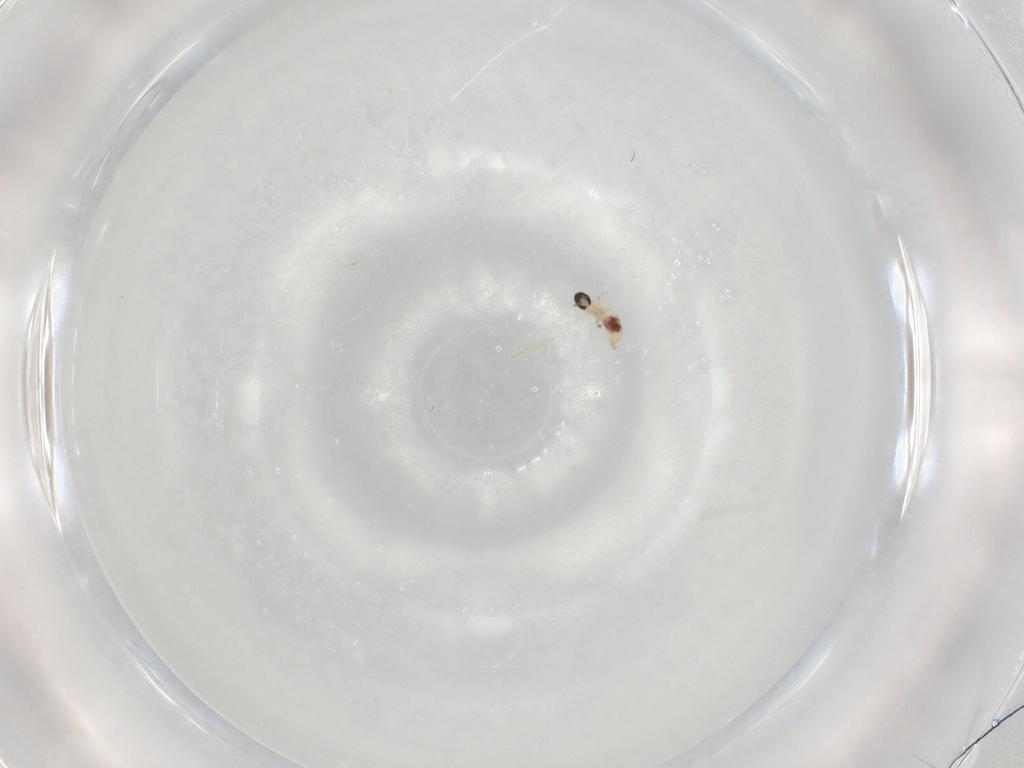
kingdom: Animalia
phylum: Arthropoda
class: Insecta
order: Diptera
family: Cecidomyiidae
